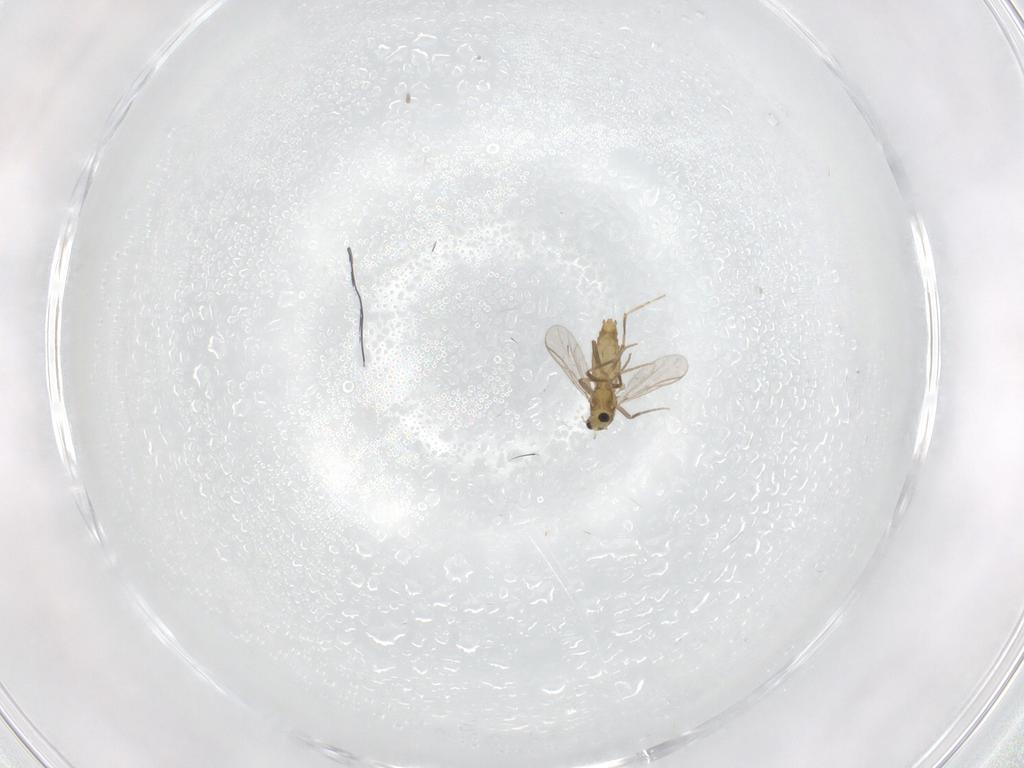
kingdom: Animalia
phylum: Arthropoda
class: Insecta
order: Diptera
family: Chironomidae
